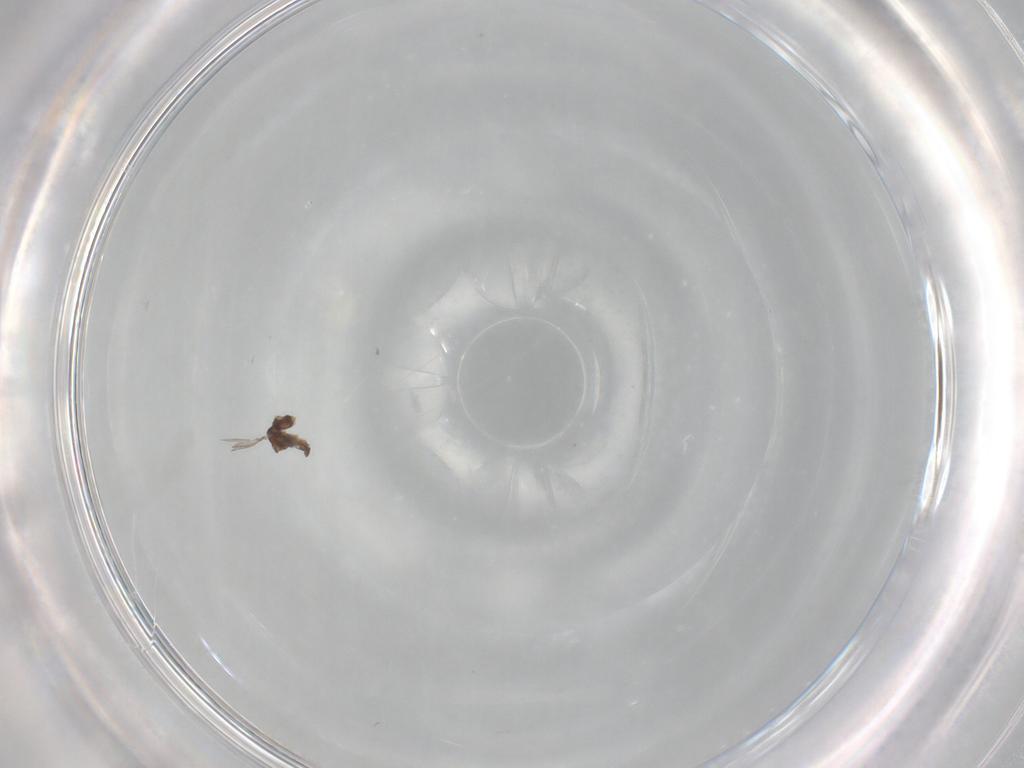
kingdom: Animalia
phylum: Arthropoda
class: Insecta
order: Diptera
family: Cecidomyiidae
